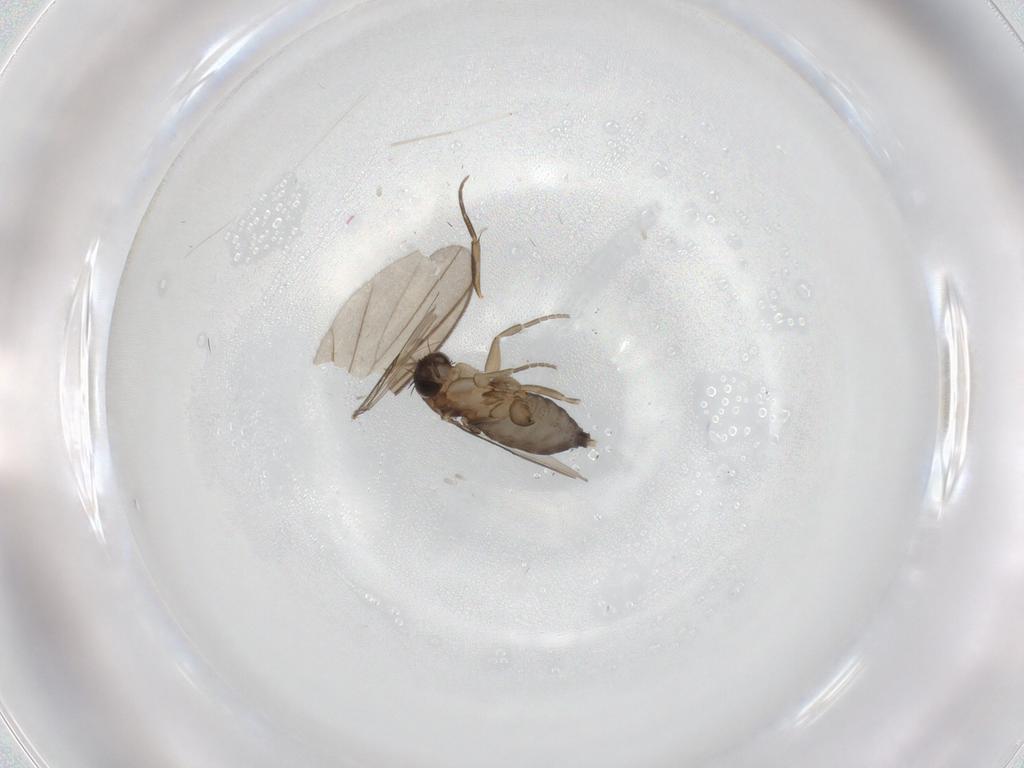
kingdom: Animalia
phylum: Arthropoda
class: Insecta
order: Diptera
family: Phoridae
